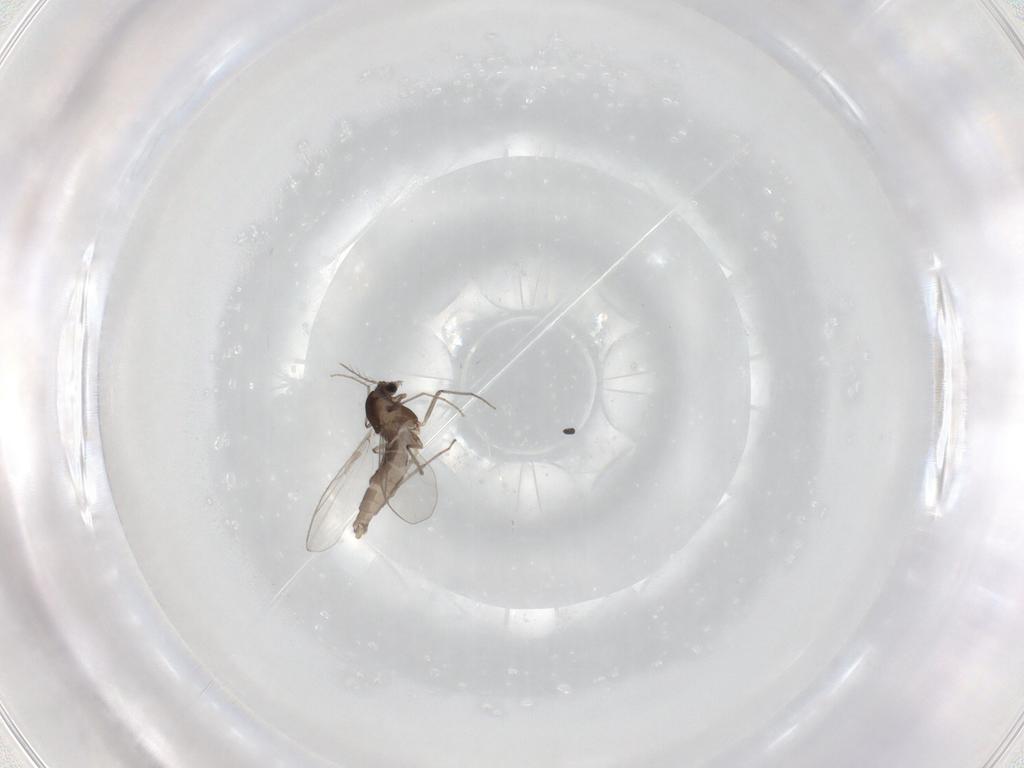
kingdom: Animalia
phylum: Arthropoda
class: Insecta
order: Diptera
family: Chironomidae
